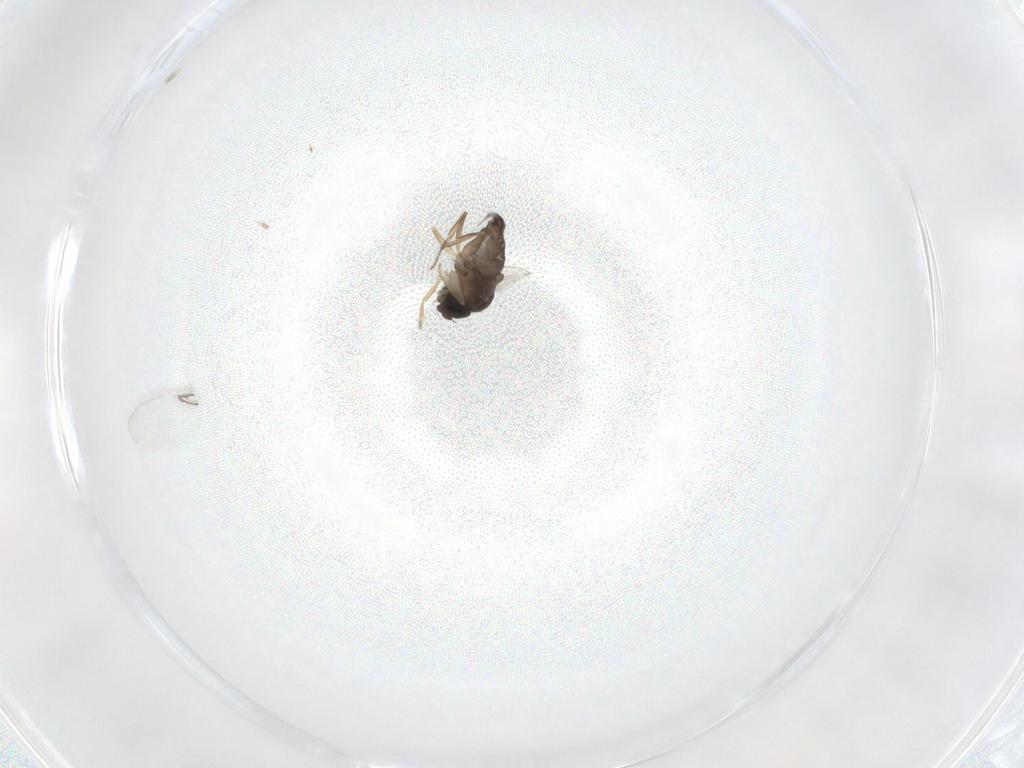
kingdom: Animalia
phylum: Arthropoda
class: Insecta
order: Diptera
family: Phoridae
